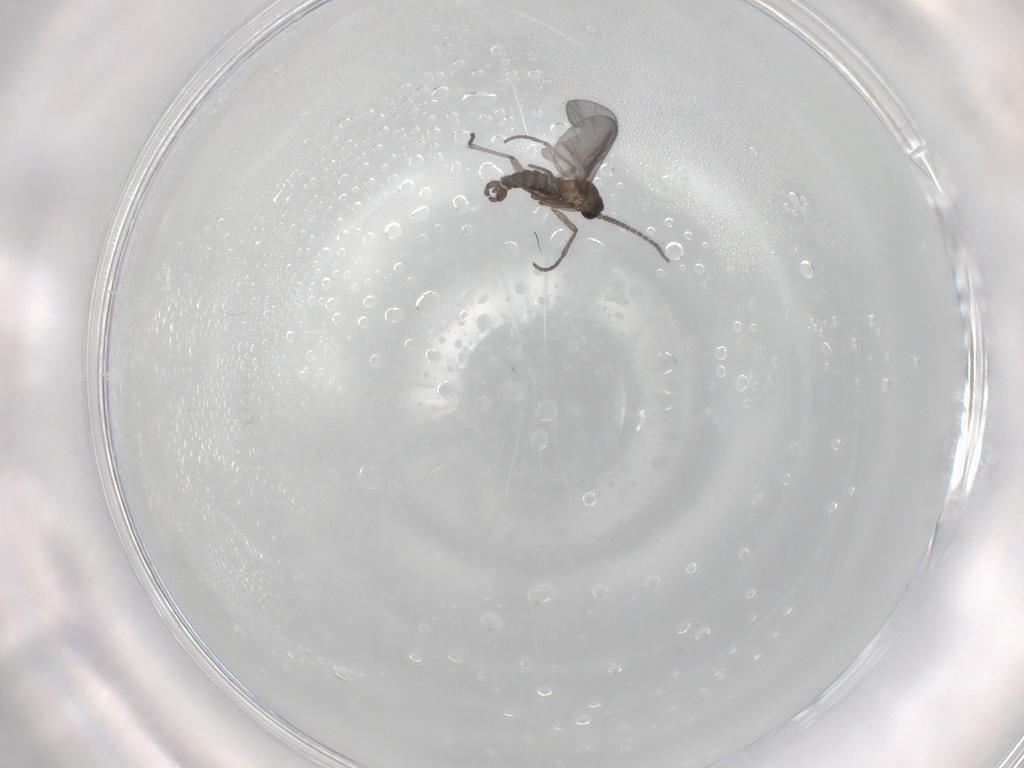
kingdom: Animalia
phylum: Arthropoda
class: Insecta
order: Diptera
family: Sciaridae
